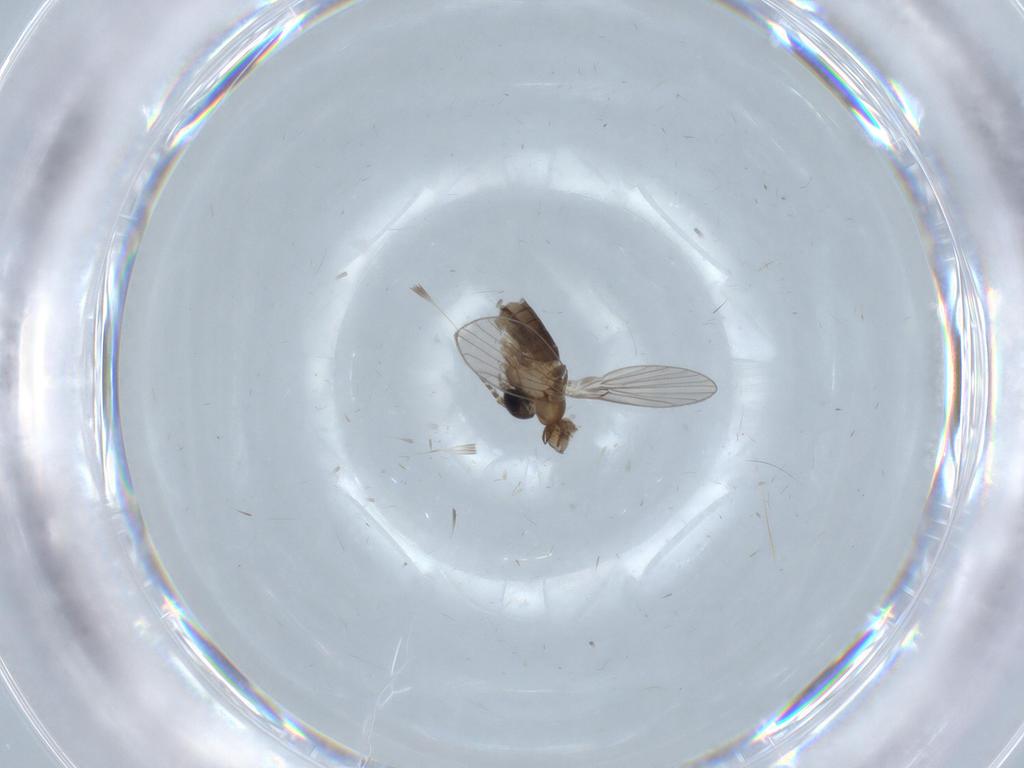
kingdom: Animalia
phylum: Arthropoda
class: Insecta
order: Diptera
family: Psychodidae
